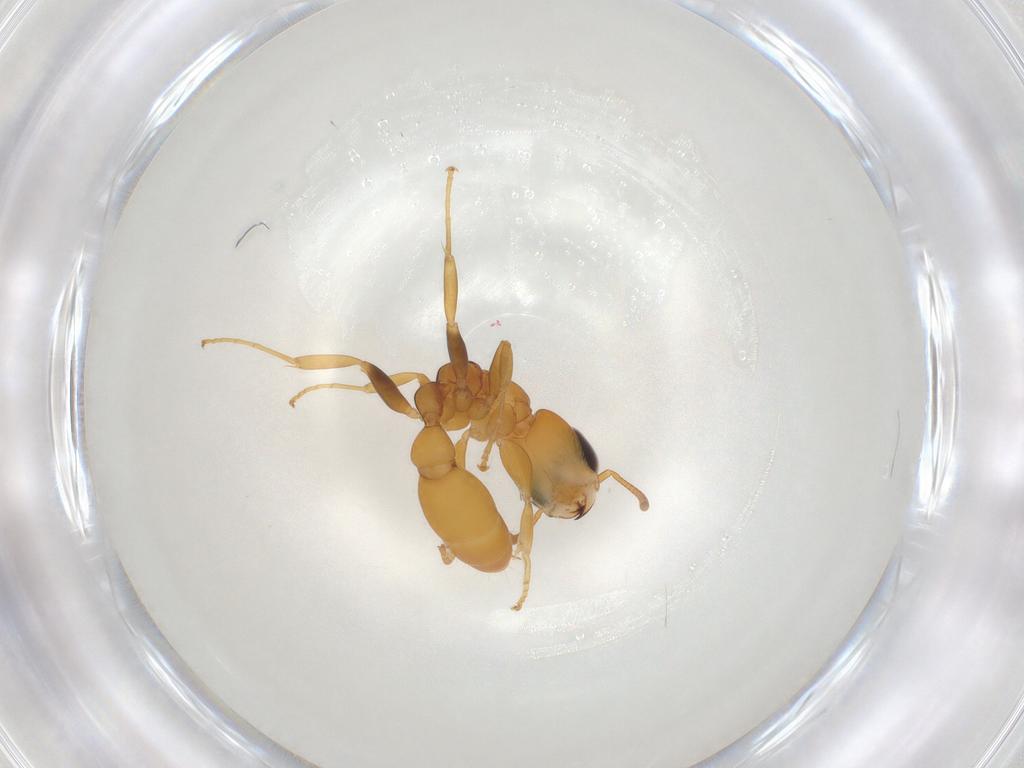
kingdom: Animalia
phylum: Arthropoda
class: Insecta
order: Hymenoptera
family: Formicidae
